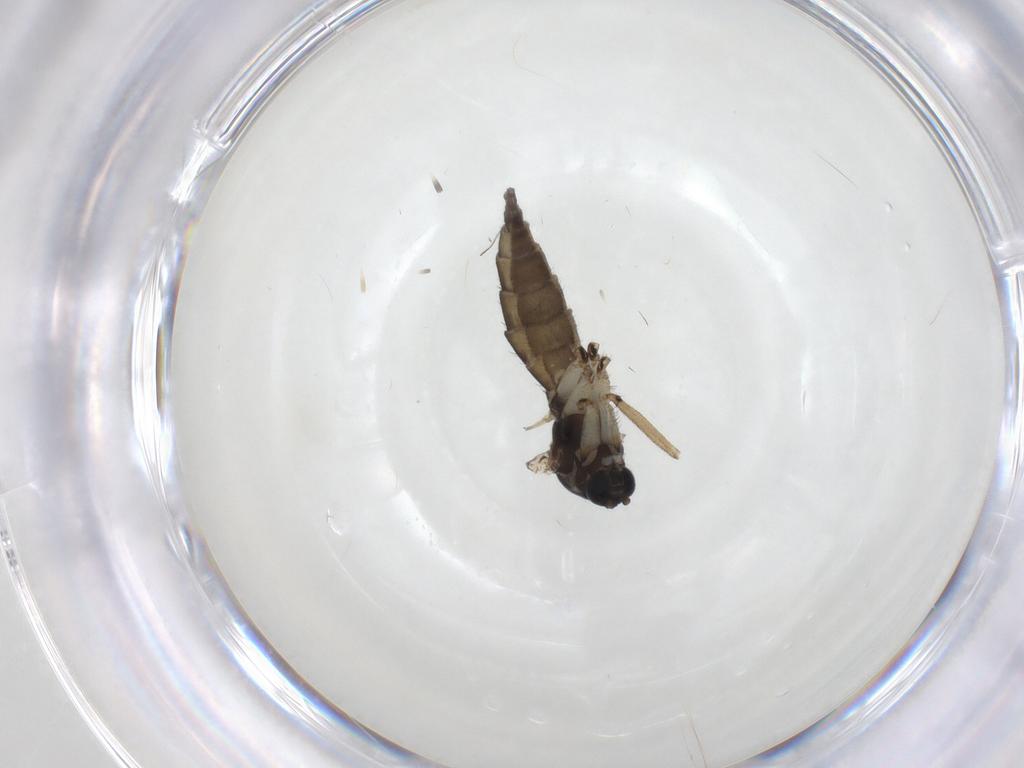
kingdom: Animalia
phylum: Arthropoda
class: Insecta
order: Diptera
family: Sciaridae
